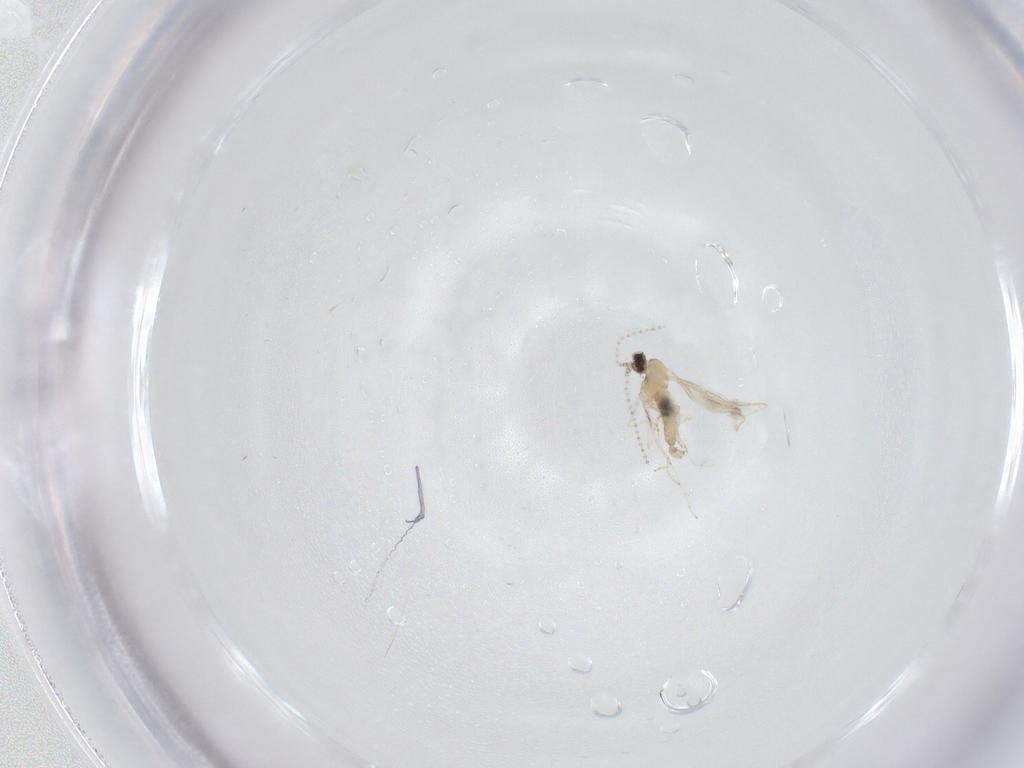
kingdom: Animalia
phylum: Arthropoda
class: Insecta
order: Diptera
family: Cecidomyiidae
